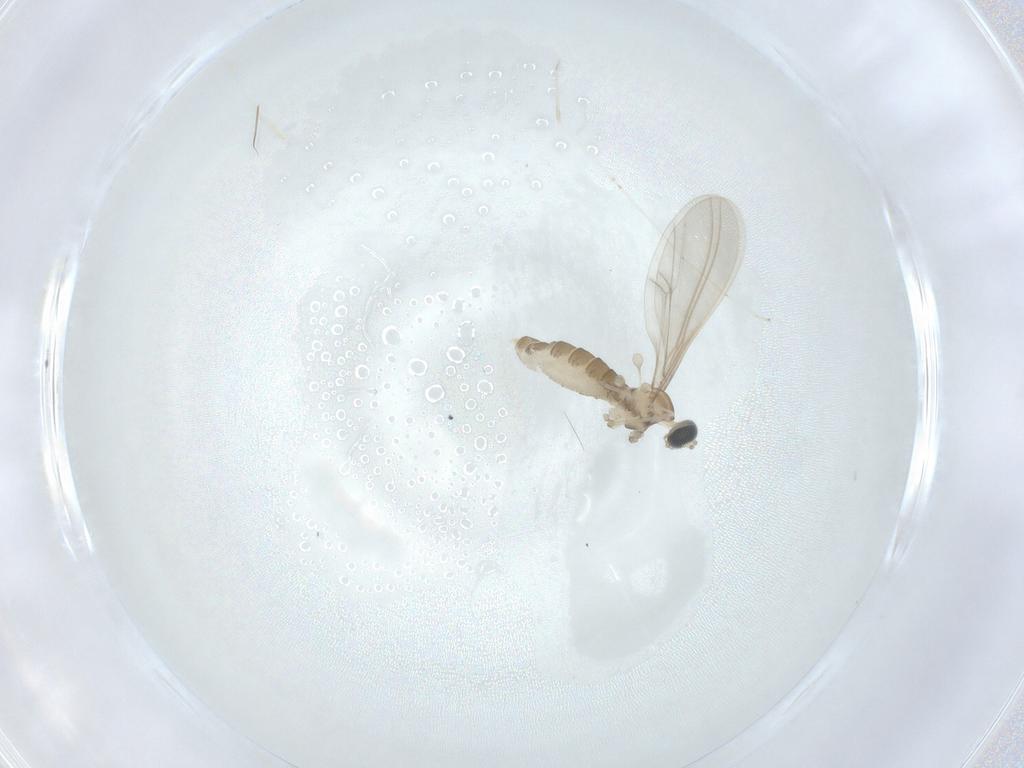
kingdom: Animalia
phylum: Arthropoda
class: Insecta
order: Diptera
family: Cecidomyiidae
